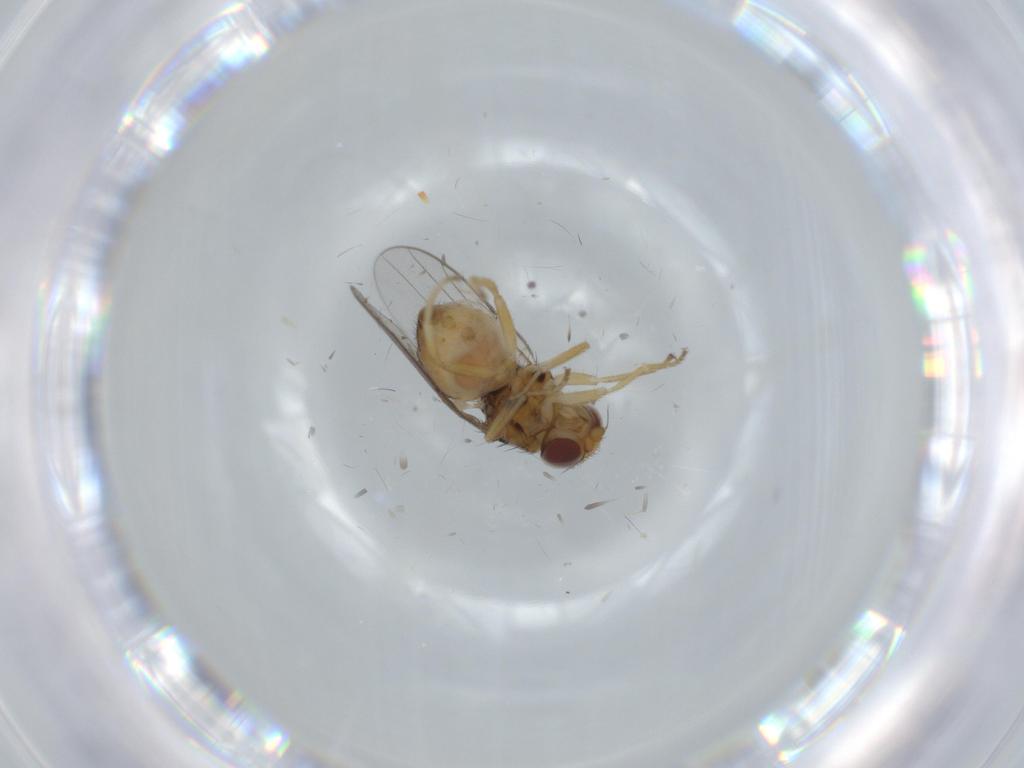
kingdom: Animalia
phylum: Arthropoda
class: Insecta
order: Diptera
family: Chloropidae
